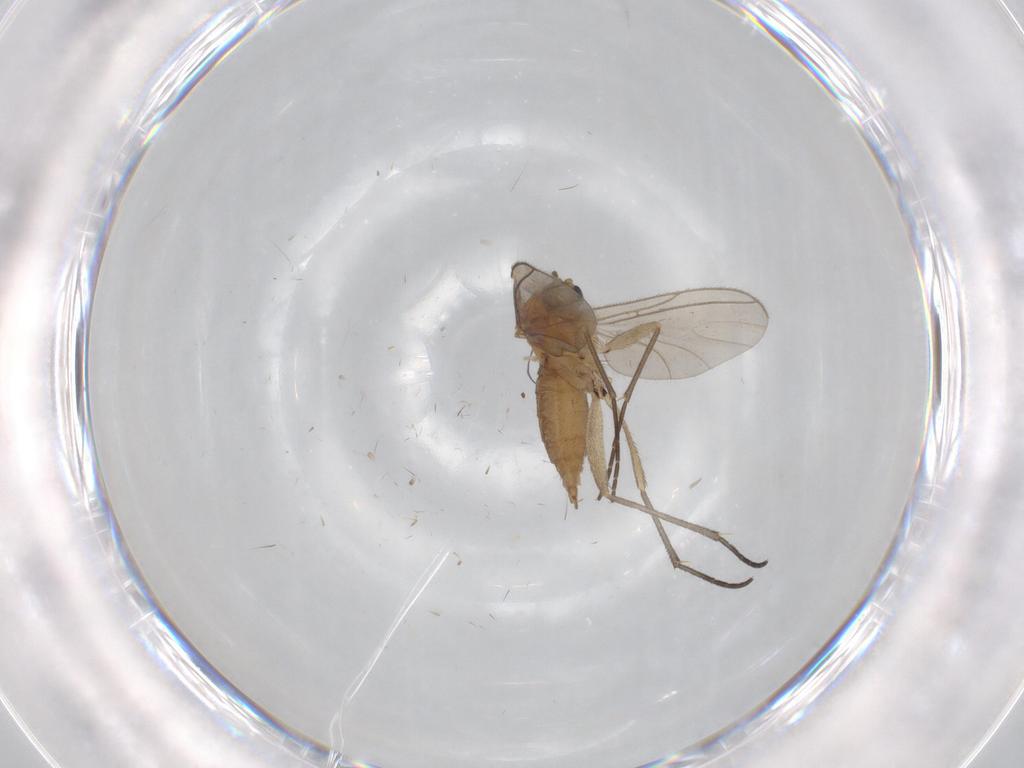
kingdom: Animalia
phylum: Arthropoda
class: Insecta
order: Diptera
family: Sciaridae
